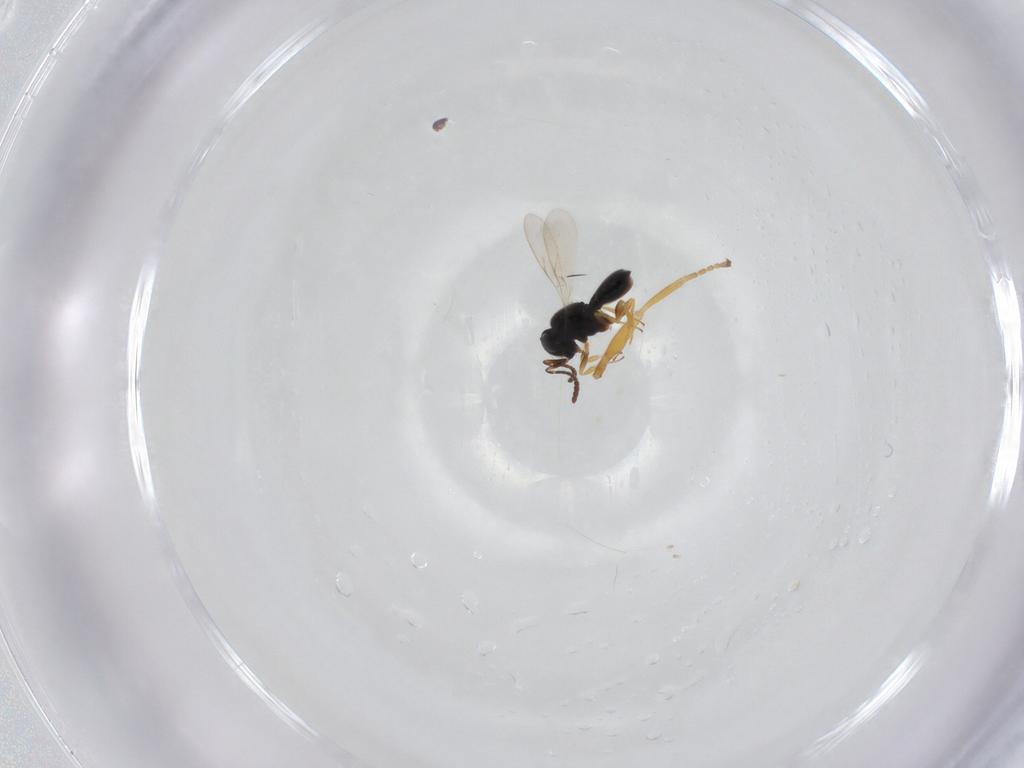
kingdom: Animalia
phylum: Arthropoda
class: Insecta
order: Hymenoptera
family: Scelionidae
